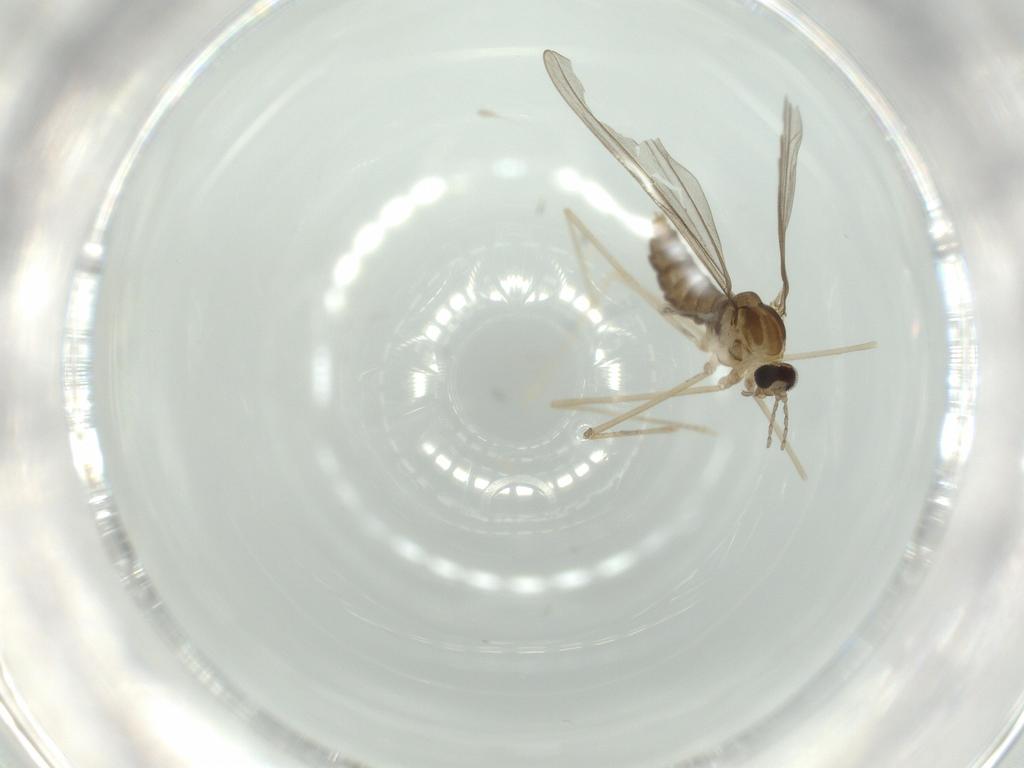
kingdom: Animalia
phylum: Arthropoda
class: Insecta
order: Diptera
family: Cecidomyiidae
